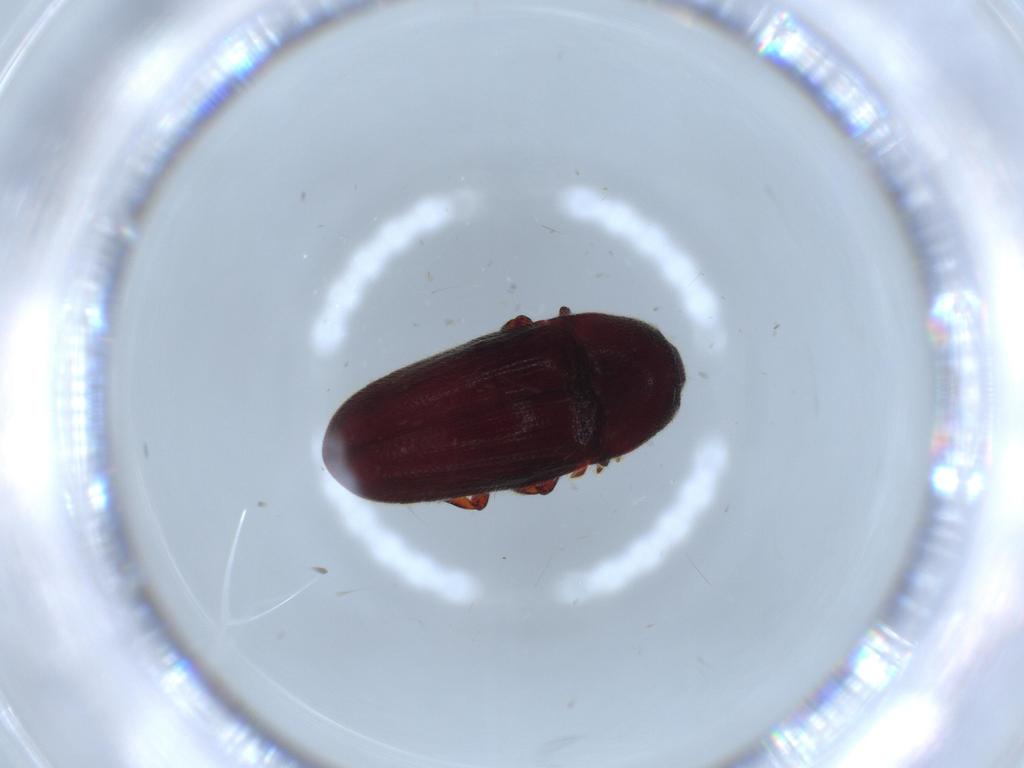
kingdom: Animalia
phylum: Arthropoda
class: Insecta
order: Coleoptera
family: Throscidae
